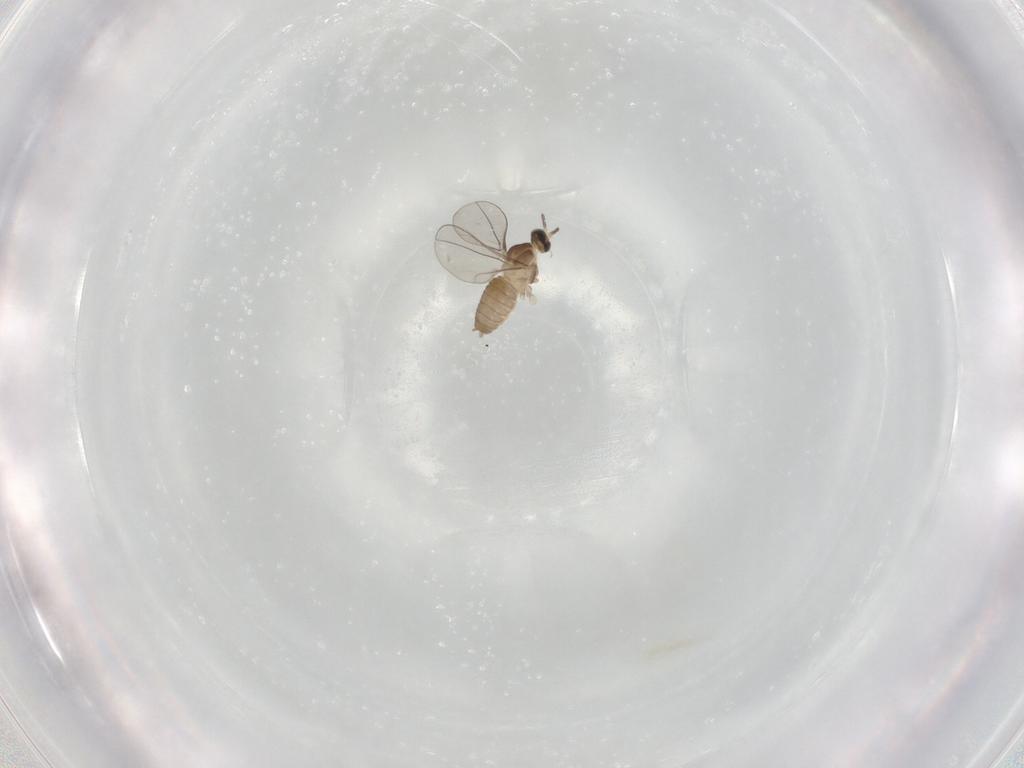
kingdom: Animalia
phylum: Arthropoda
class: Insecta
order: Diptera
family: Cecidomyiidae
